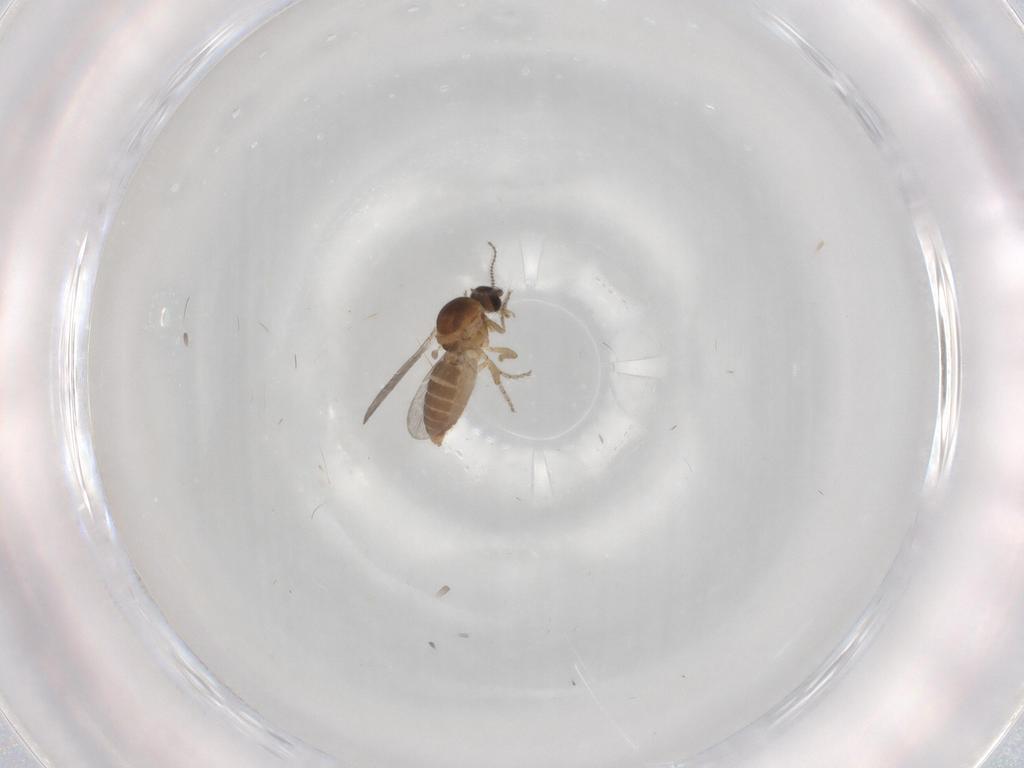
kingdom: Animalia
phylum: Arthropoda
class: Insecta
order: Diptera
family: Ceratopogonidae
